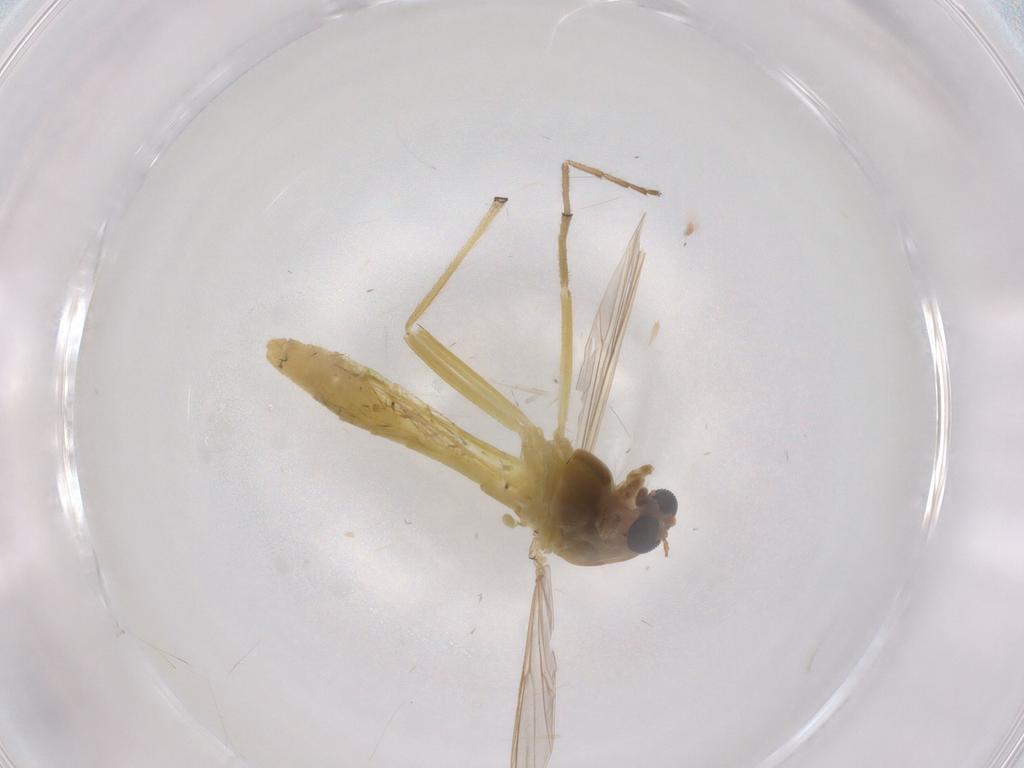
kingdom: Animalia
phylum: Arthropoda
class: Insecta
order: Diptera
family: Chironomidae
